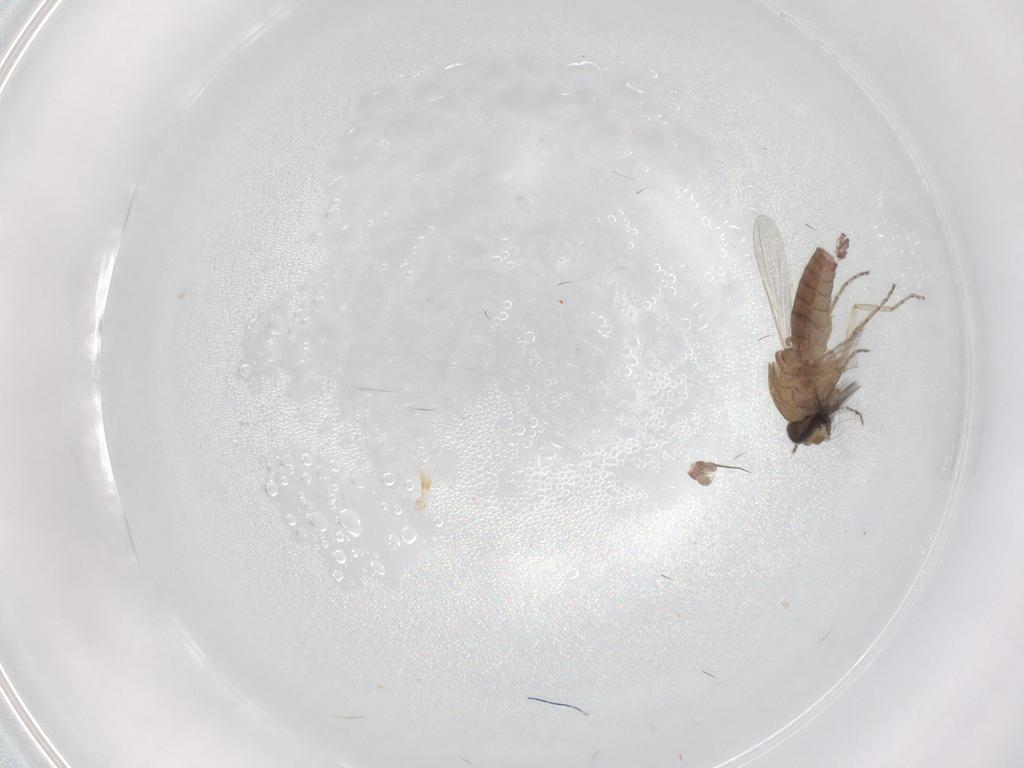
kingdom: Animalia
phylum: Arthropoda
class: Insecta
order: Diptera
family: Ceratopogonidae
